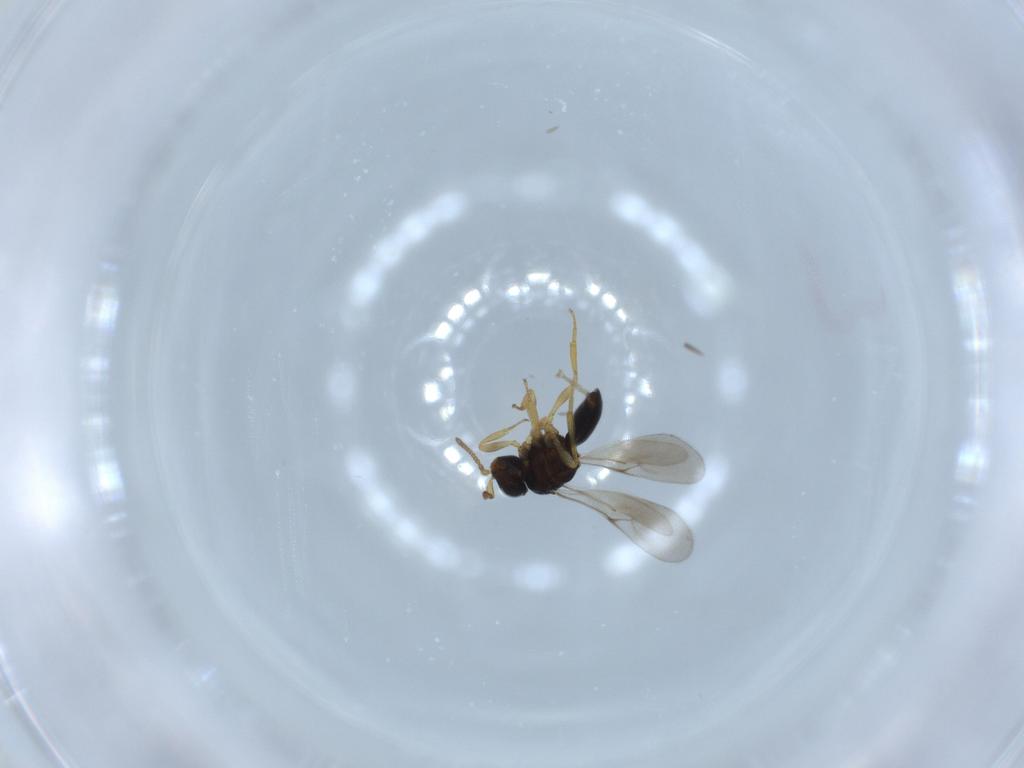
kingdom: Animalia
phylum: Arthropoda
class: Insecta
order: Hymenoptera
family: Scelionidae
